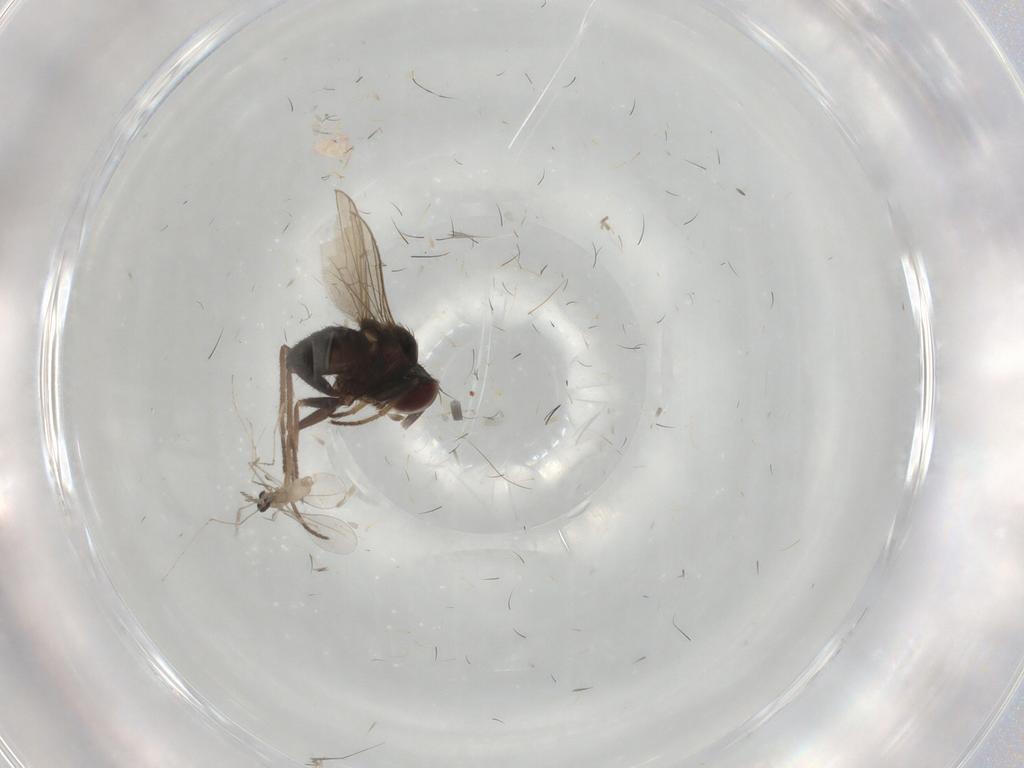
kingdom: Animalia
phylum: Arthropoda
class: Insecta
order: Diptera
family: Dolichopodidae
